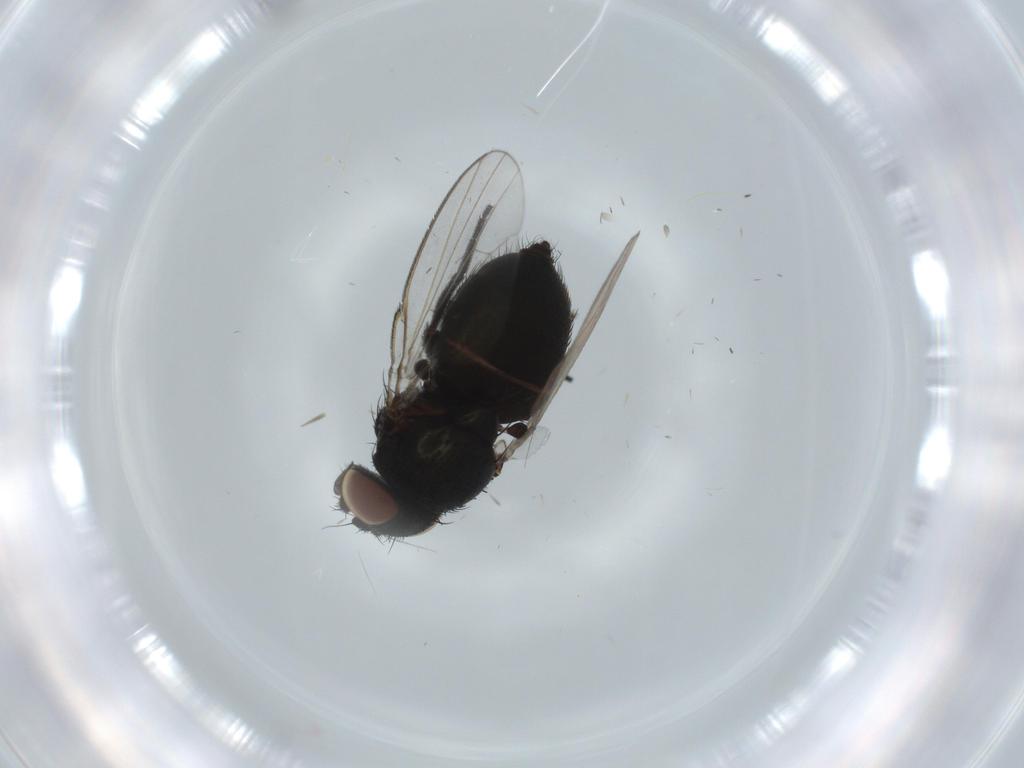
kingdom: Animalia
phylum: Arthropoda
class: Insecta
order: Diptera
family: Milichiidae
